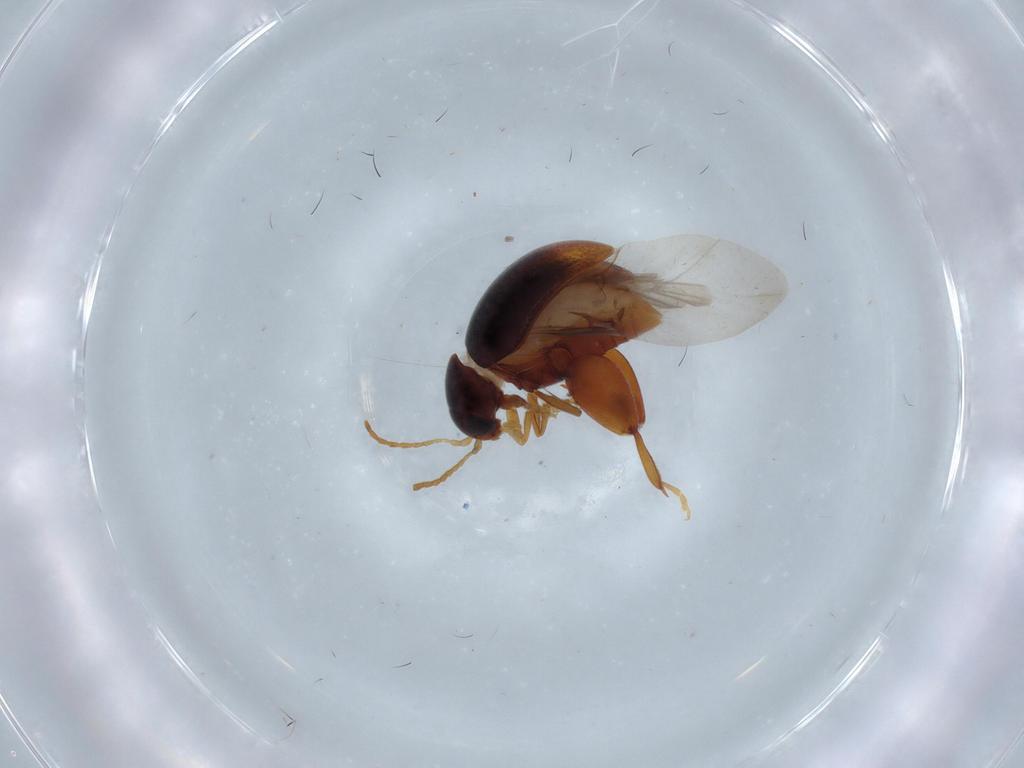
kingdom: Animalia
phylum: Arthropoda
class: Insecta
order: Coleoptera
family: Chrysomelidae
